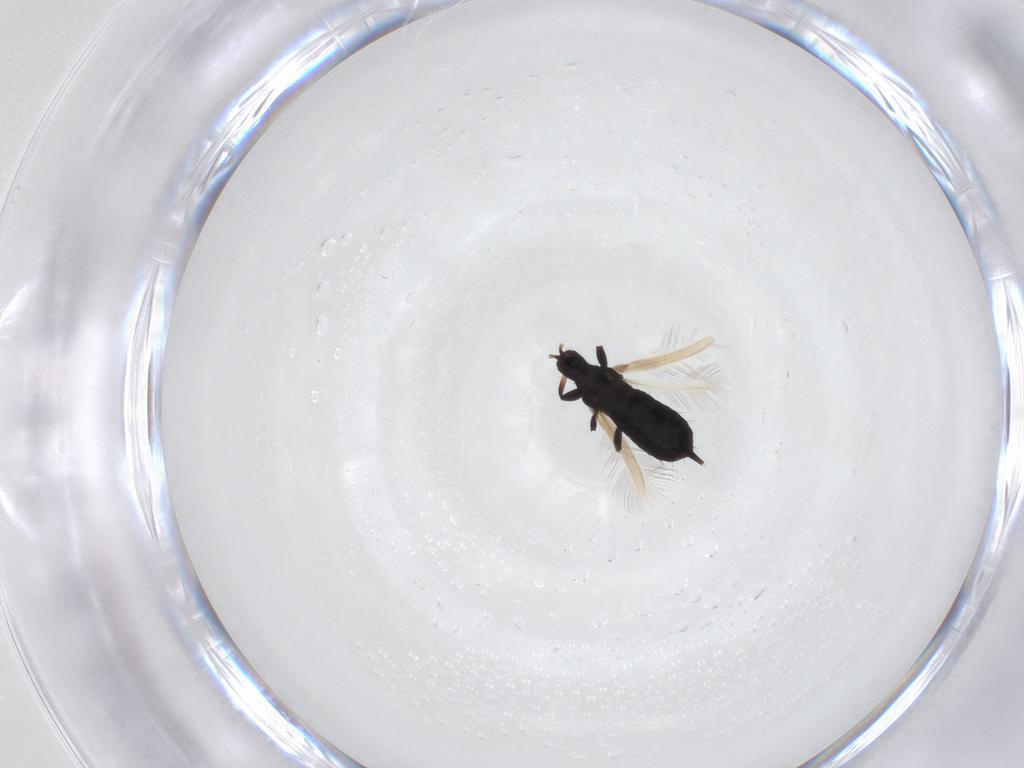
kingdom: Animalia
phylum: Arthropoda
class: Insecta
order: Thysanoptera
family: Phlaeothripidae
